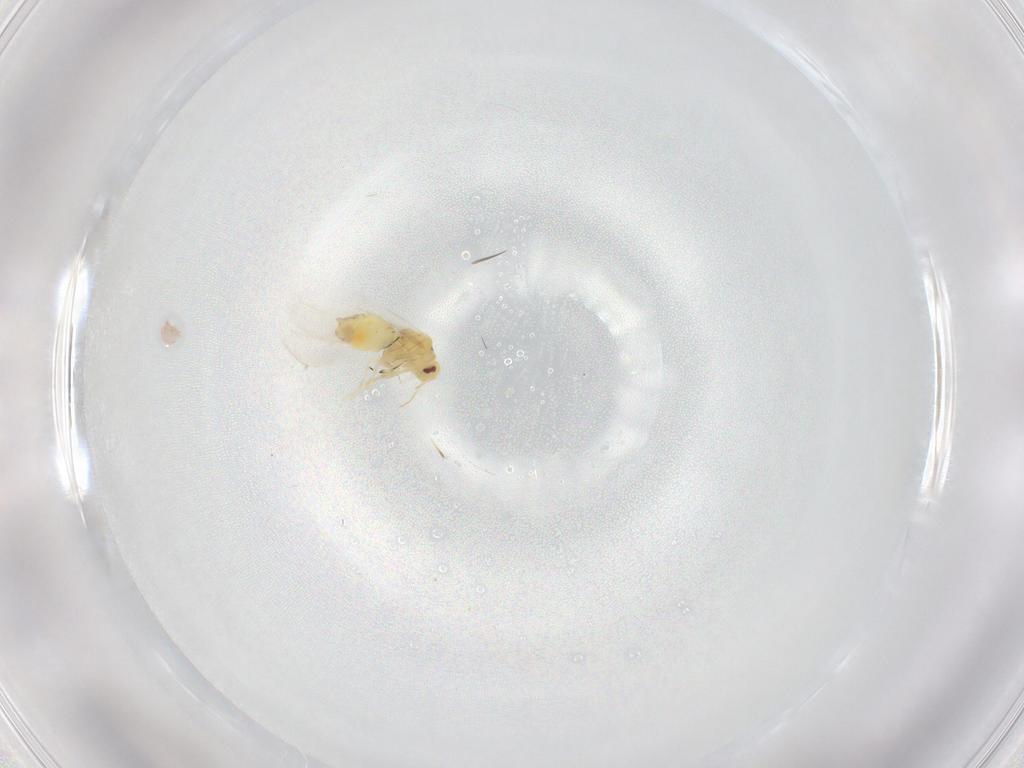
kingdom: Animalia
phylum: Arthropoda
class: Insecta
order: Hemiptera
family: Aleyrodidae
